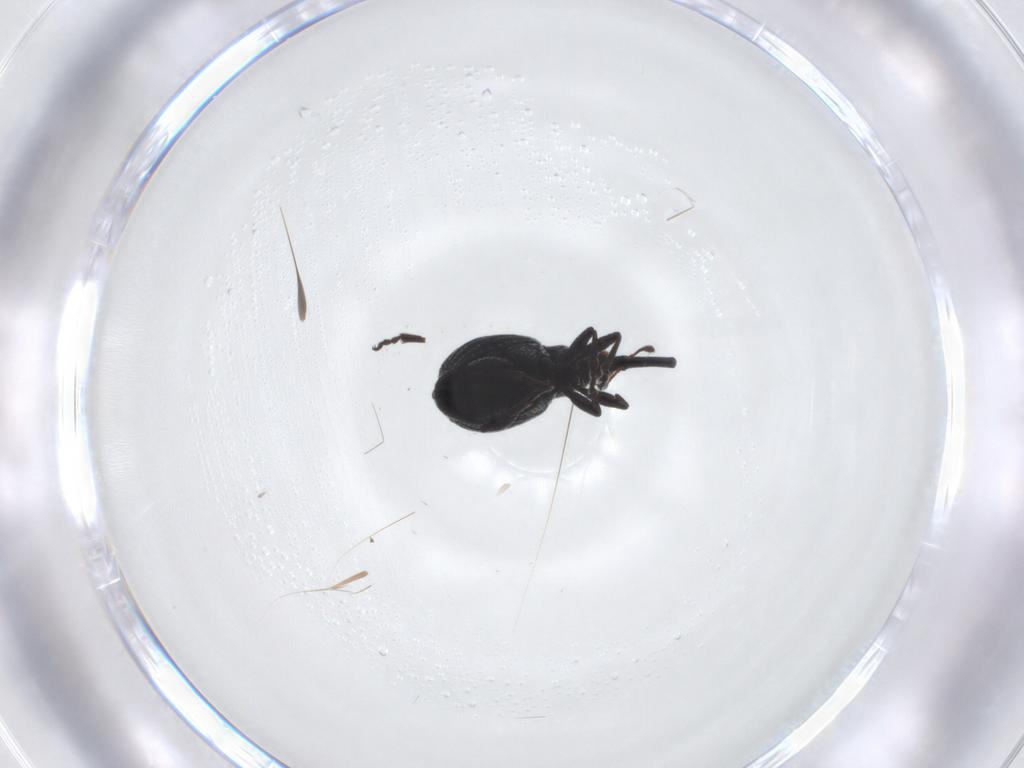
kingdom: Animalia
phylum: Arthropoda
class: Insecta
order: Coleoptera
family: Brentidae
